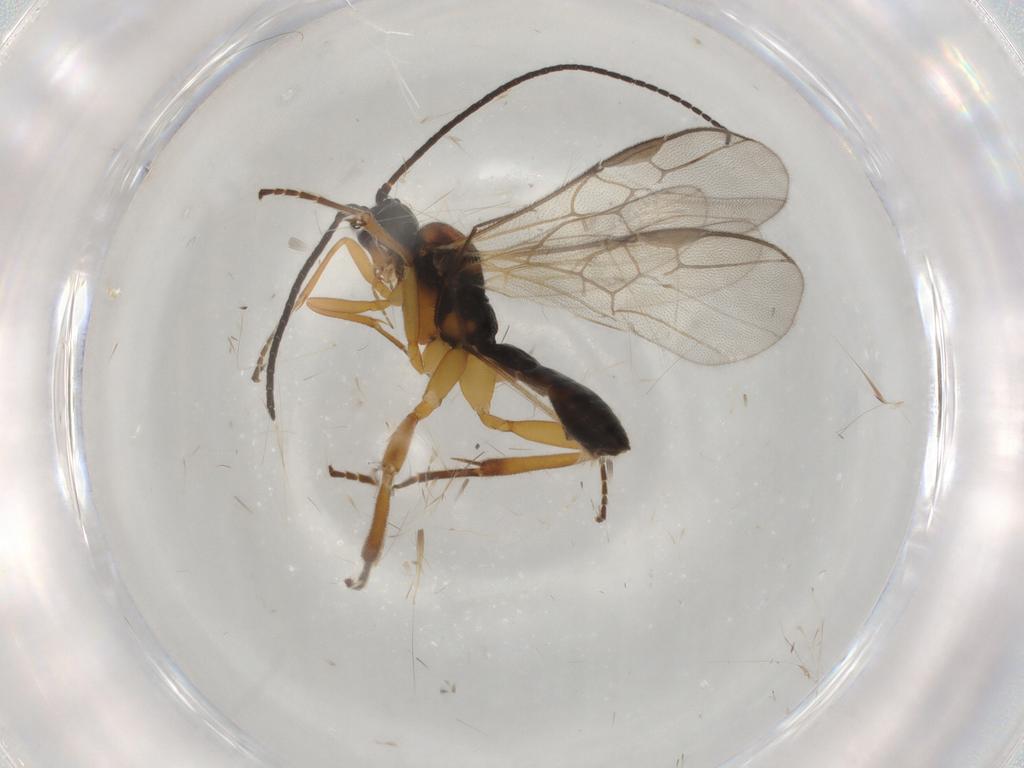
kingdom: Animalia
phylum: Arthropoda
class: Insecta
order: Hymenoptera
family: Braconidae
